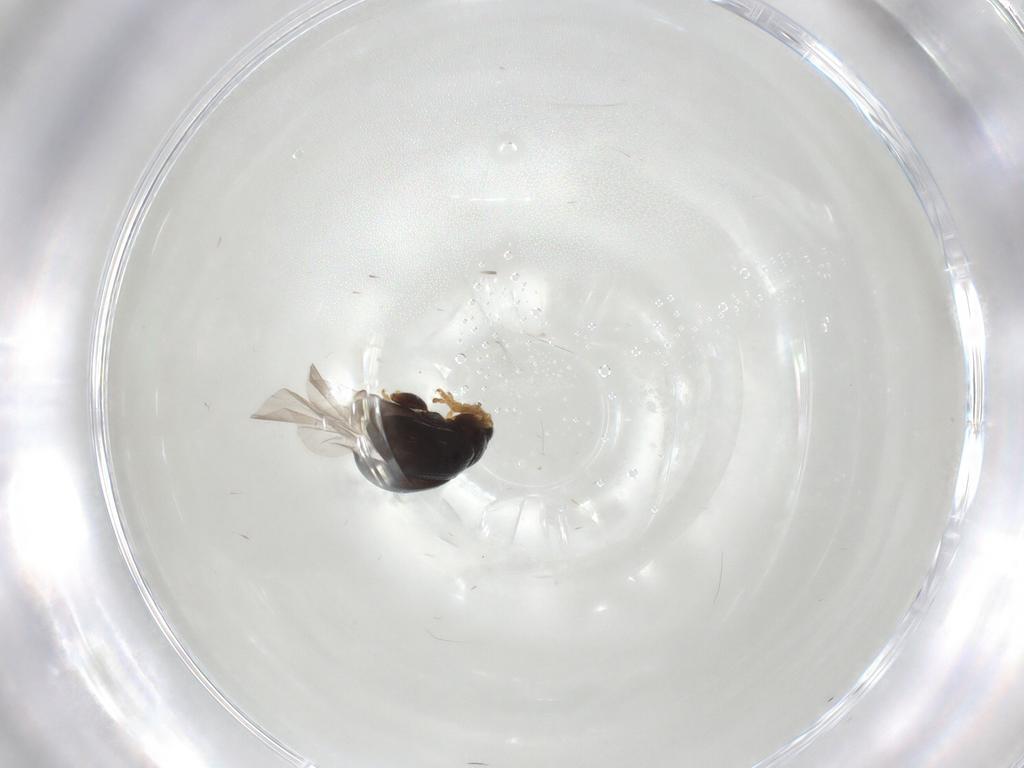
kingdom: Animalia
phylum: Arthropoda
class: Insecta
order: Coleoptera
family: Chrysomelidae
